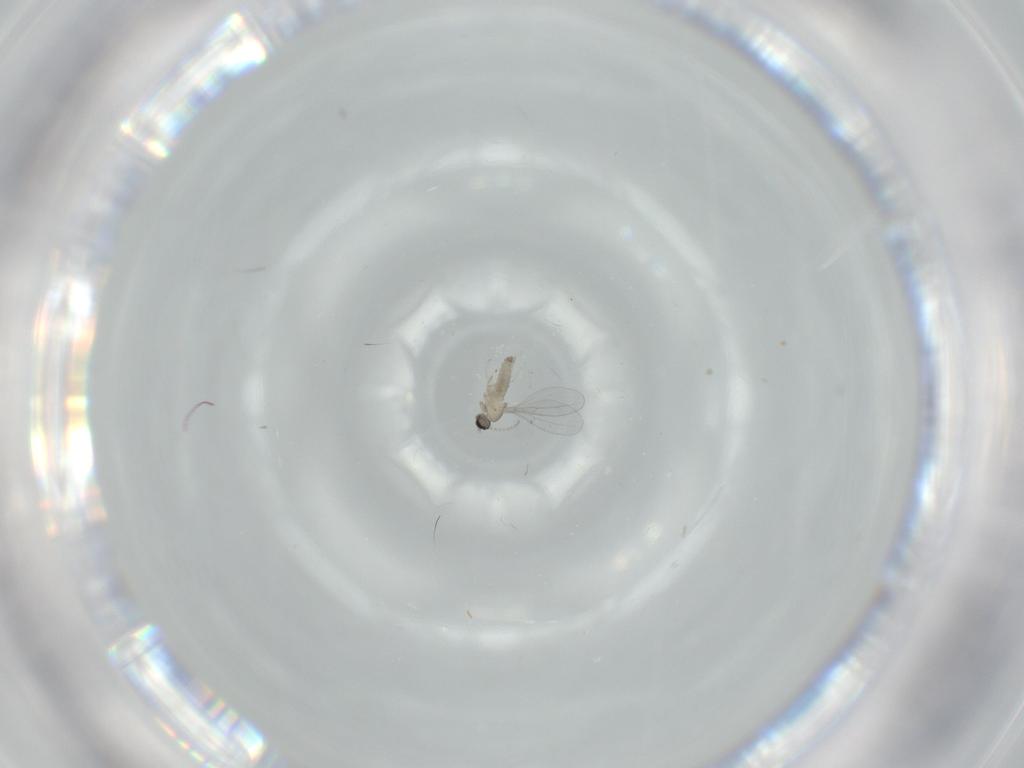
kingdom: Animalia
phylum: Arthropoda
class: Insecta
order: Diptera
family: Cecidomyiidae
